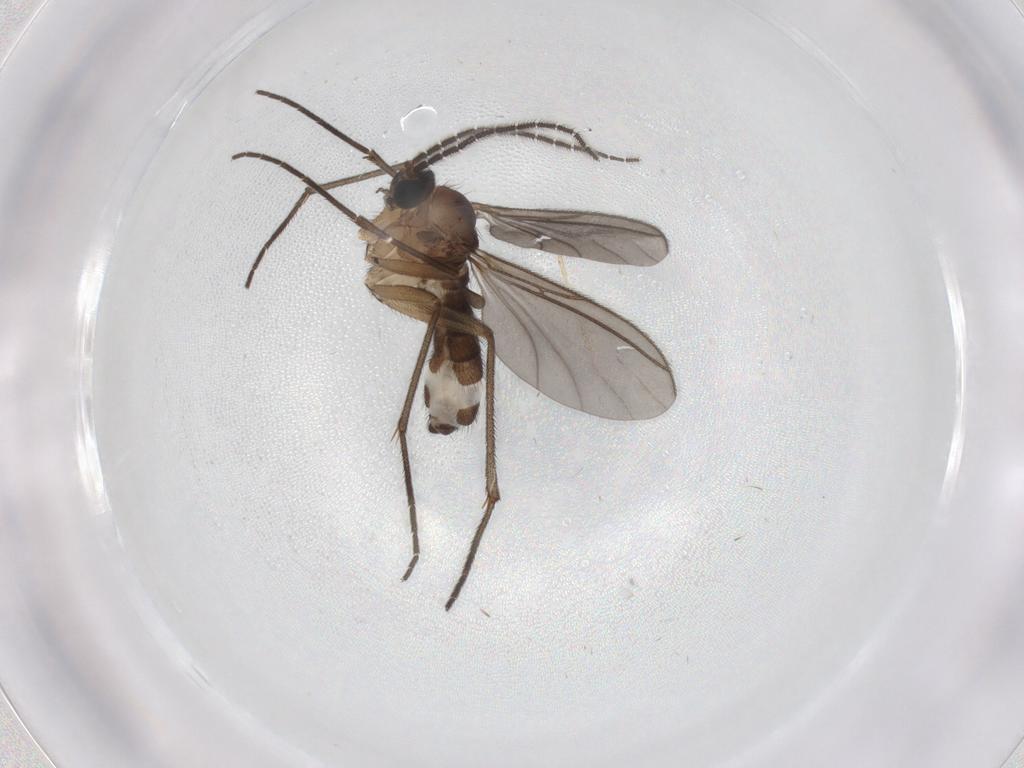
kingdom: Animalia
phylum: Arthropoda
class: Insecta
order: Diptera
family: Sciaridae
